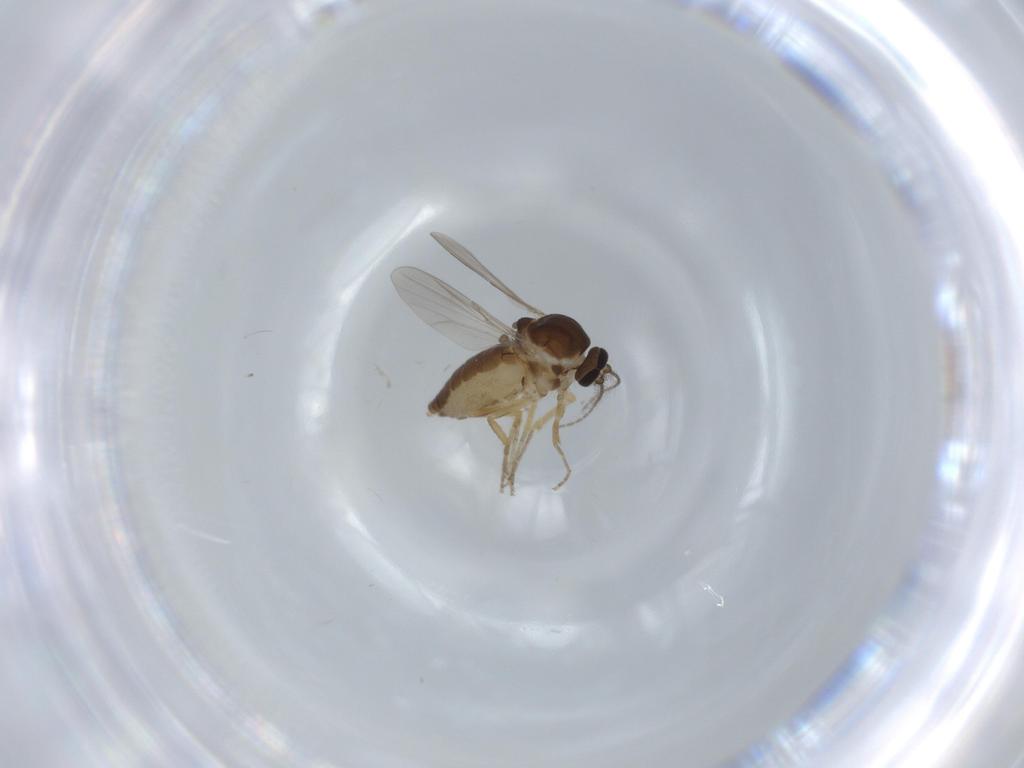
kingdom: Animalia
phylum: Arthropoda
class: Insecta
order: Diptera
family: Ceratopogonidae
